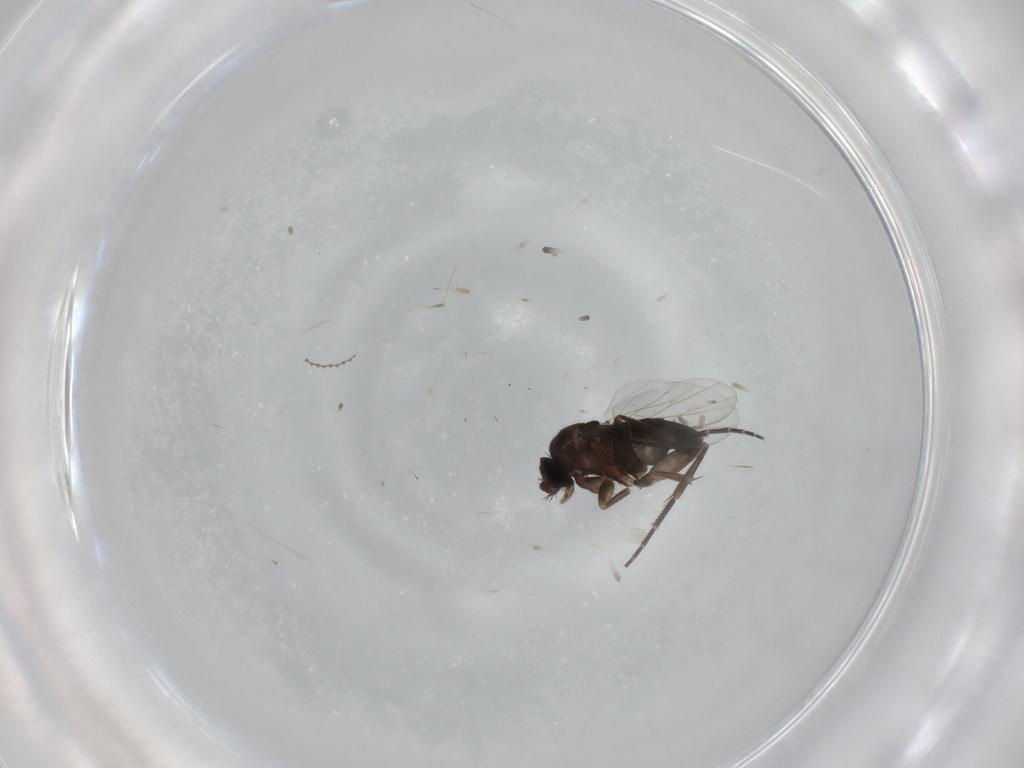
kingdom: Animalia
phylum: Arthropoda
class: Insecta
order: Diptera
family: Phoridae
